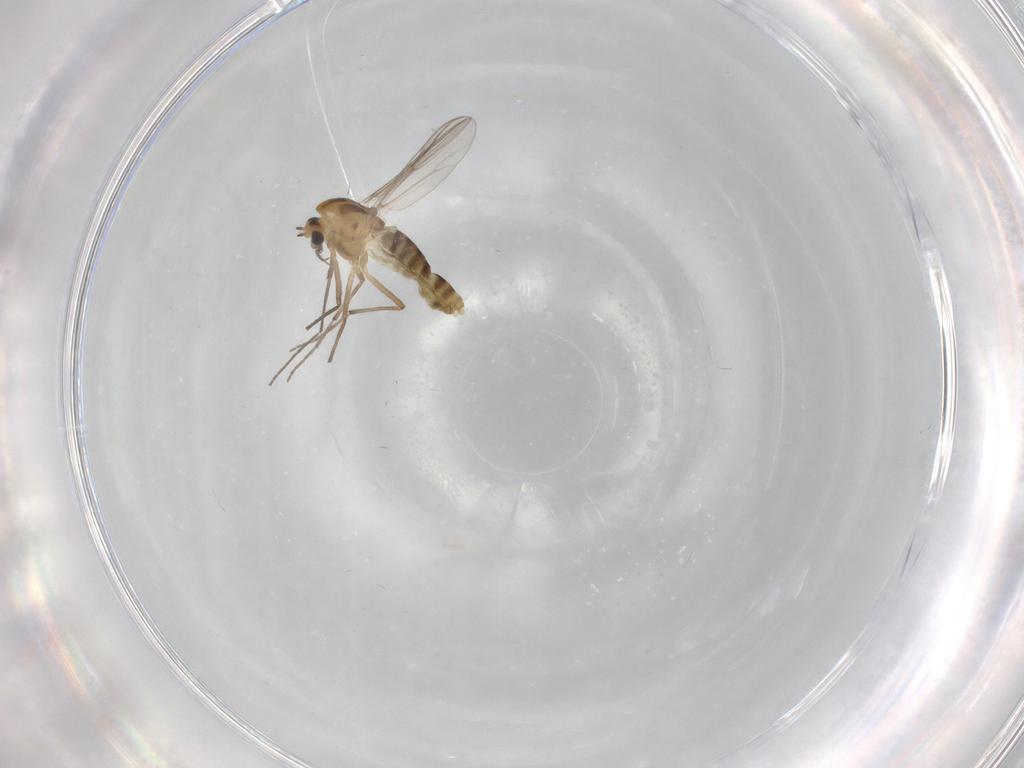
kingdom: Animalia
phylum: Arthropoda
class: Insecta
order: Diptera
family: Chironomidae
